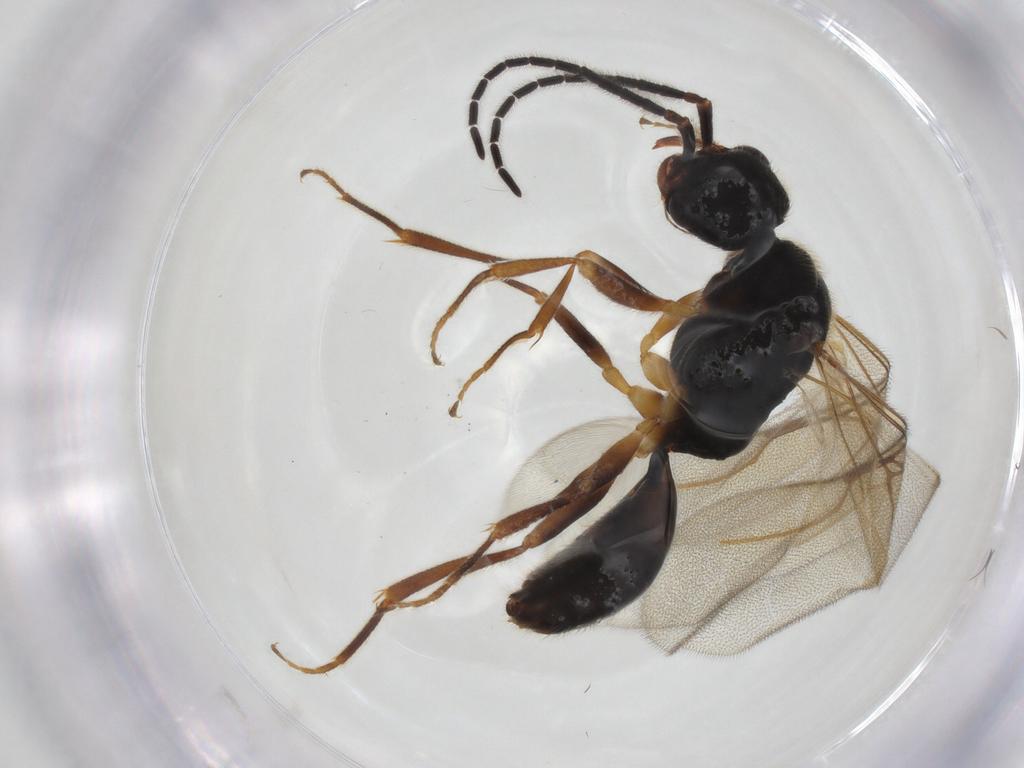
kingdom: Animalia
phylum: Arthropoda
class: Insecta
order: Hymenoptera
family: Bethylidae
